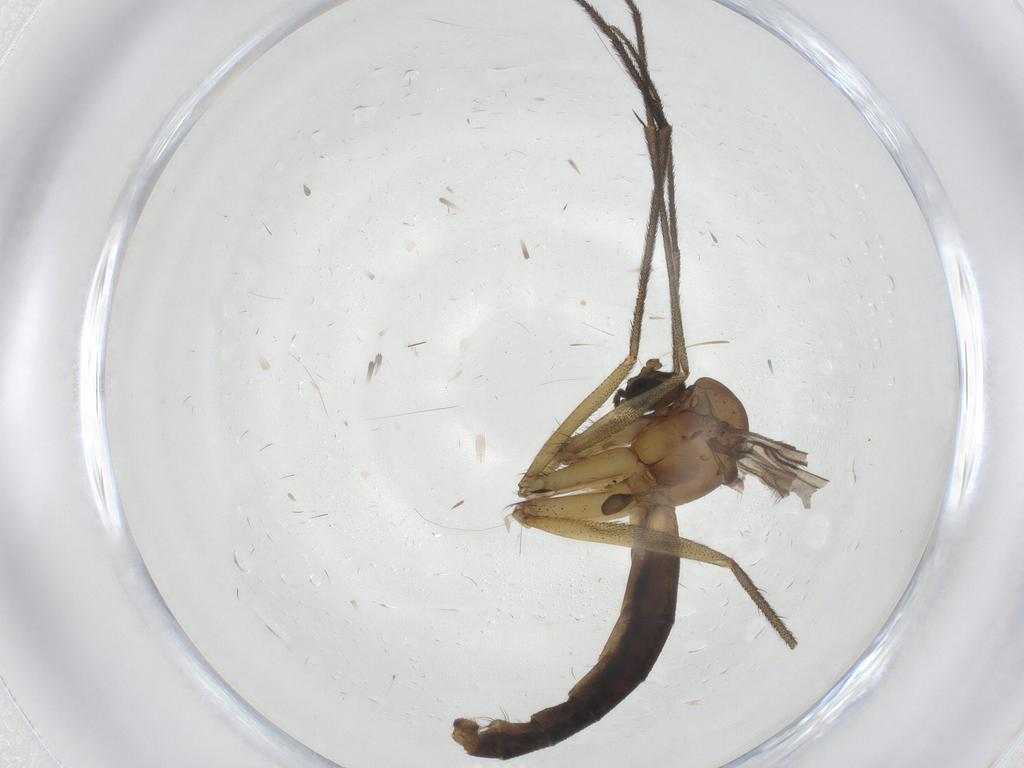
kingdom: Animalia
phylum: Arthropoda
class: Insecta
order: Diptera
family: Ditomyiidae
